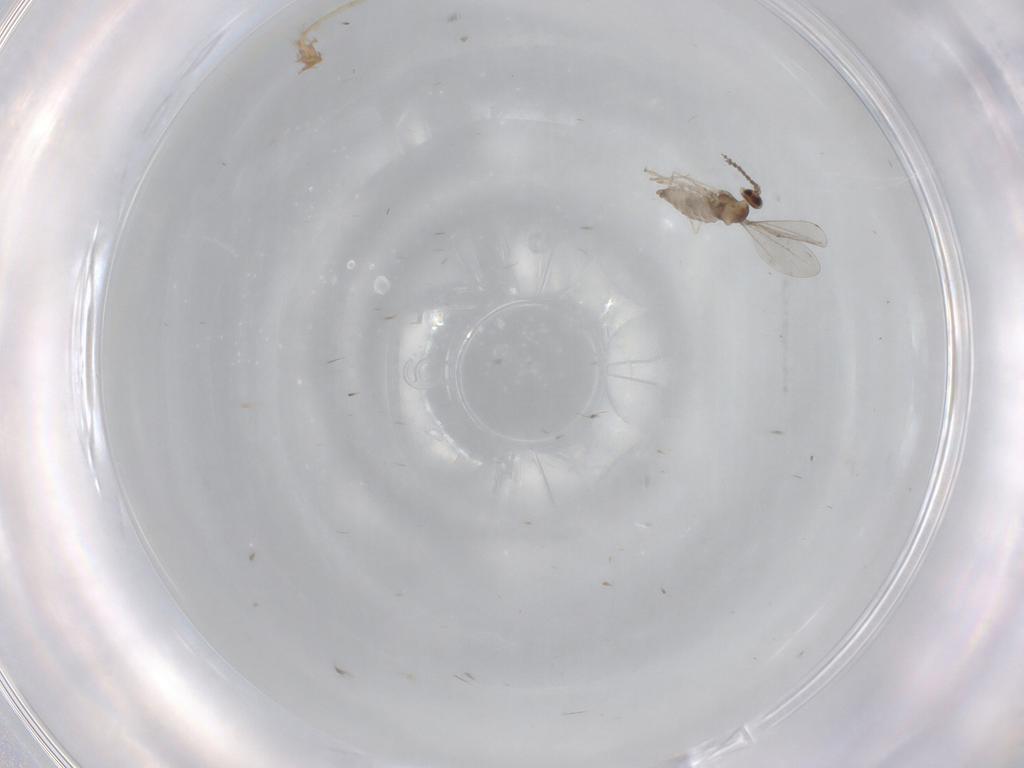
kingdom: Animalia
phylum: Arthropoda
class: Insecta
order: Diptera
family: Cecidomyiidae
